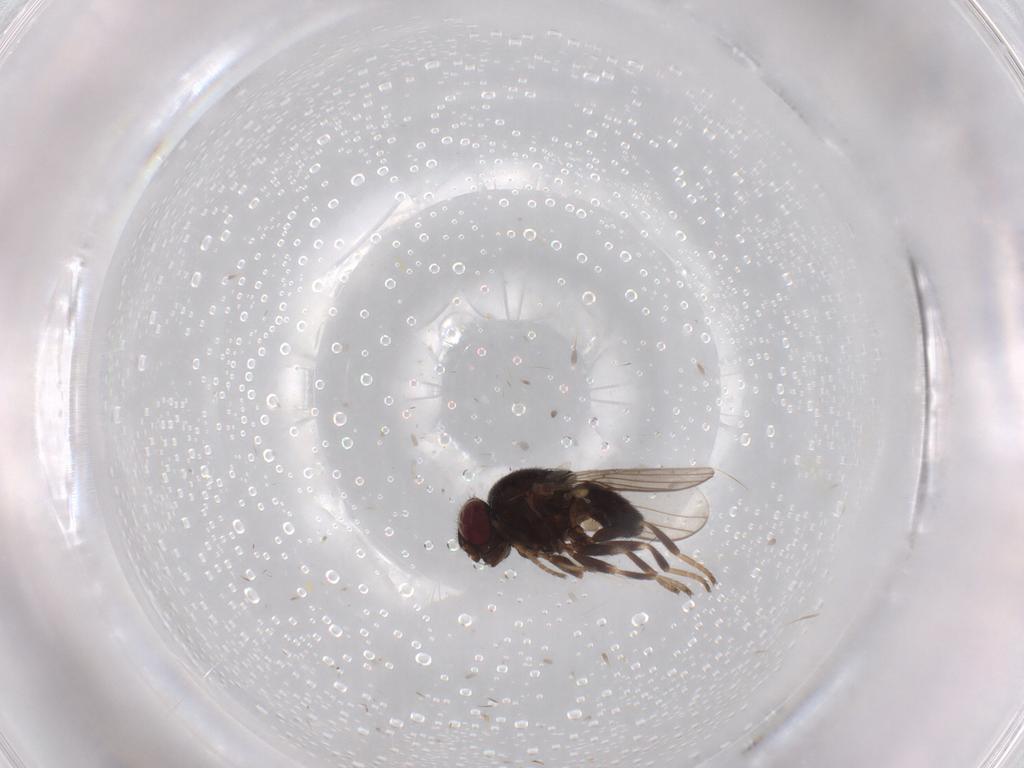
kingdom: Animalia
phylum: Arthropoda
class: Insecta
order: Diptera
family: Chloropidae
